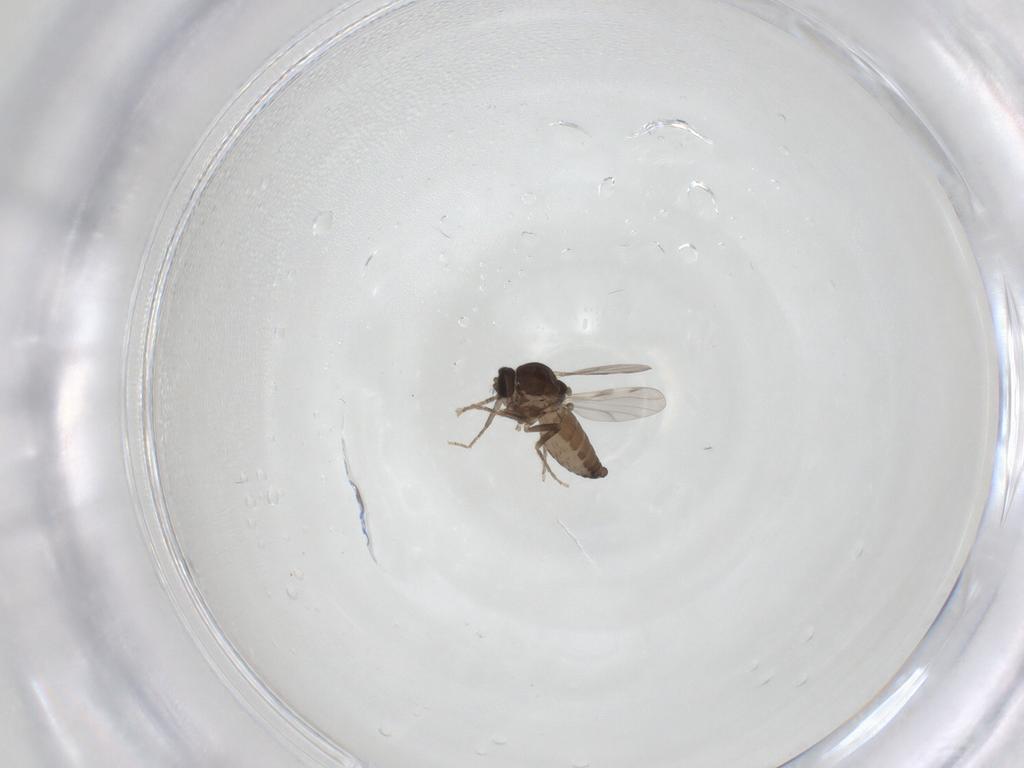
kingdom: Animalia
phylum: Arthropoda
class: Insecta
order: Diptera
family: Ceratopogonidae
